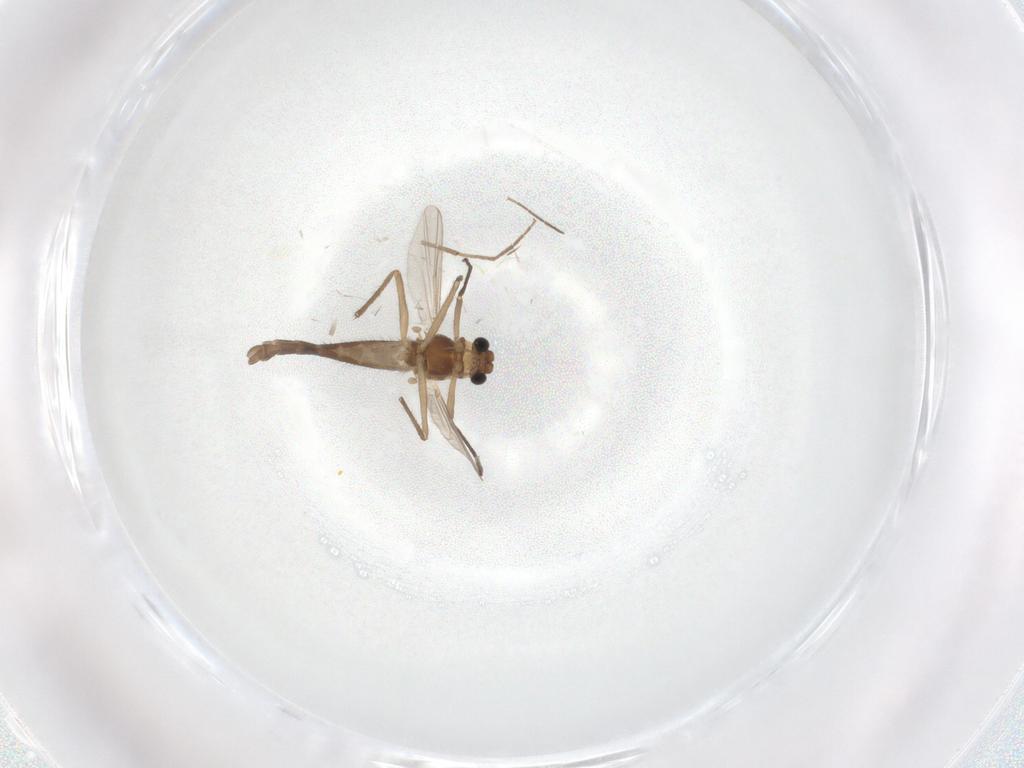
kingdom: Animalia
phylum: Arthropoda
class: Insecta
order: Diptera
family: Chironomidae
